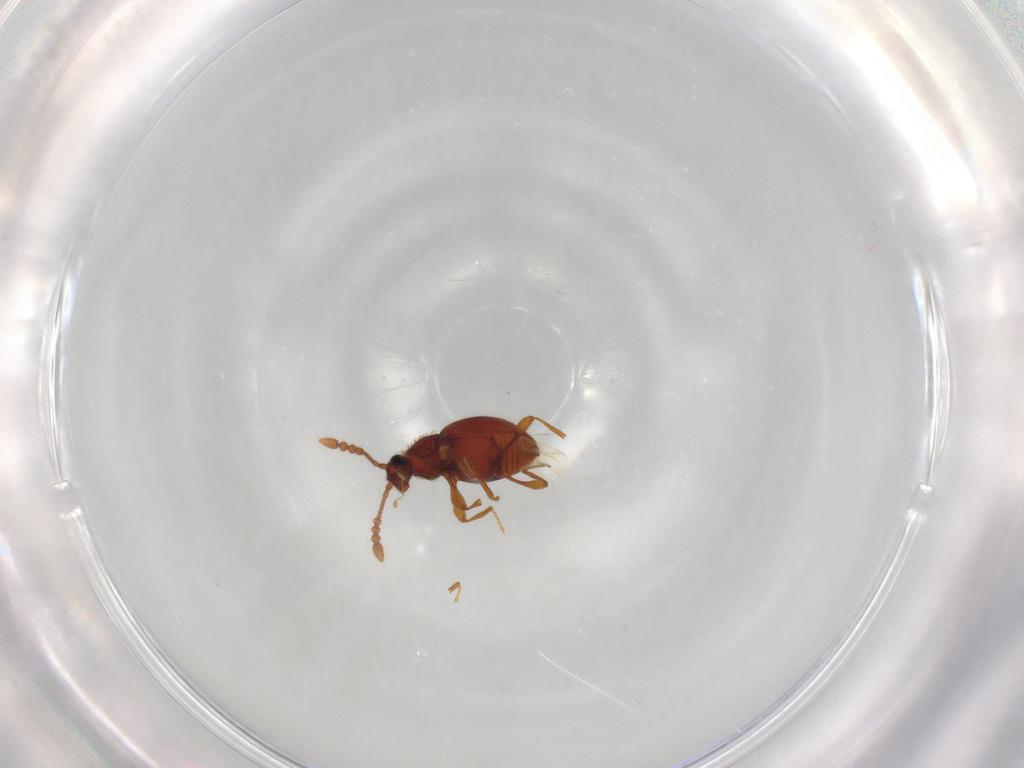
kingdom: Animalia
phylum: Arthropoda
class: Insecta
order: Coleoptera
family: Staphylinidae
